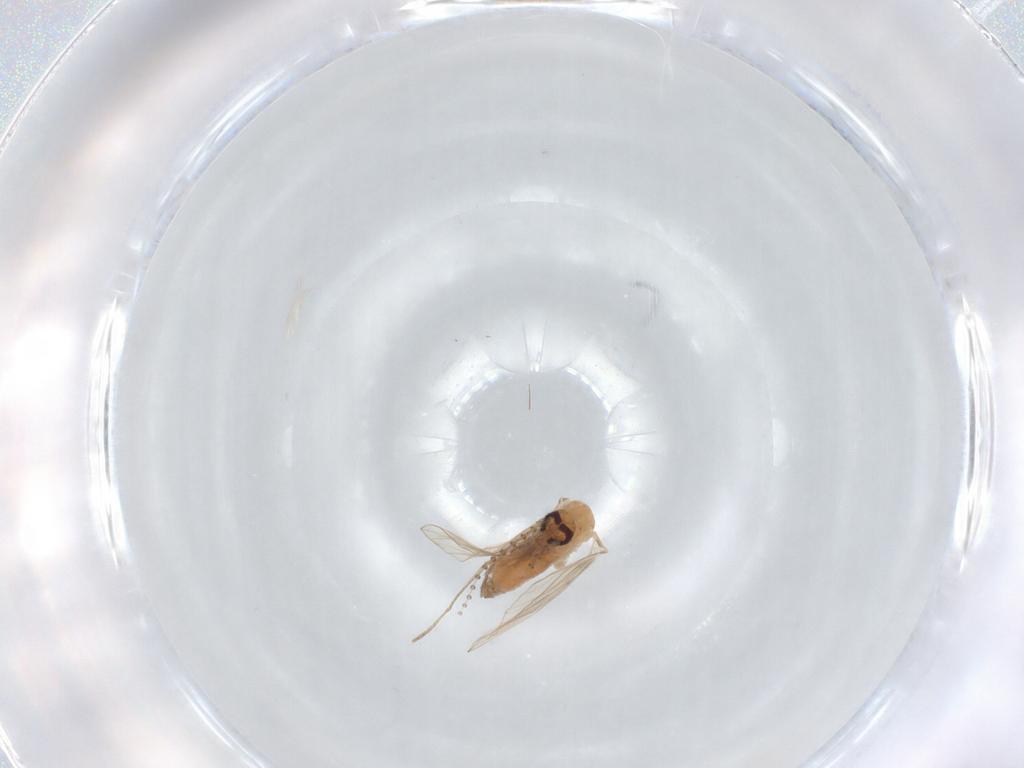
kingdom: Animalia
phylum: Arthropoda
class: Insecta
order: Diptera
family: Psychodidae
